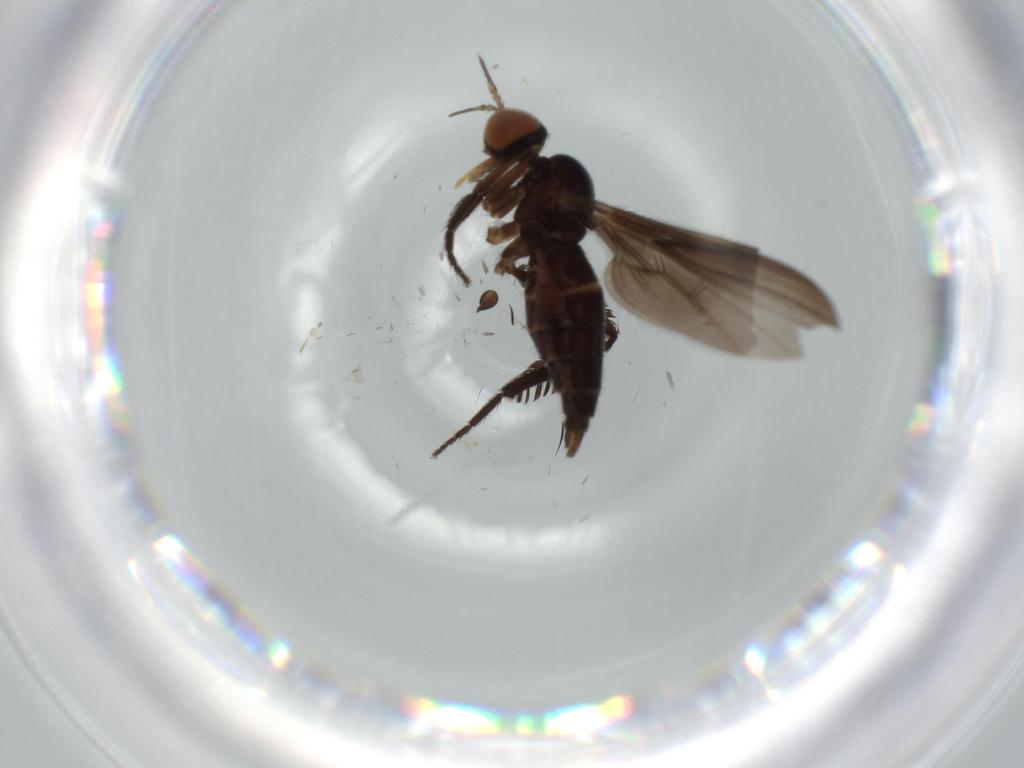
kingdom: Animalia
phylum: Arthropoda
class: Insecta
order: Diptera
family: Empididae
